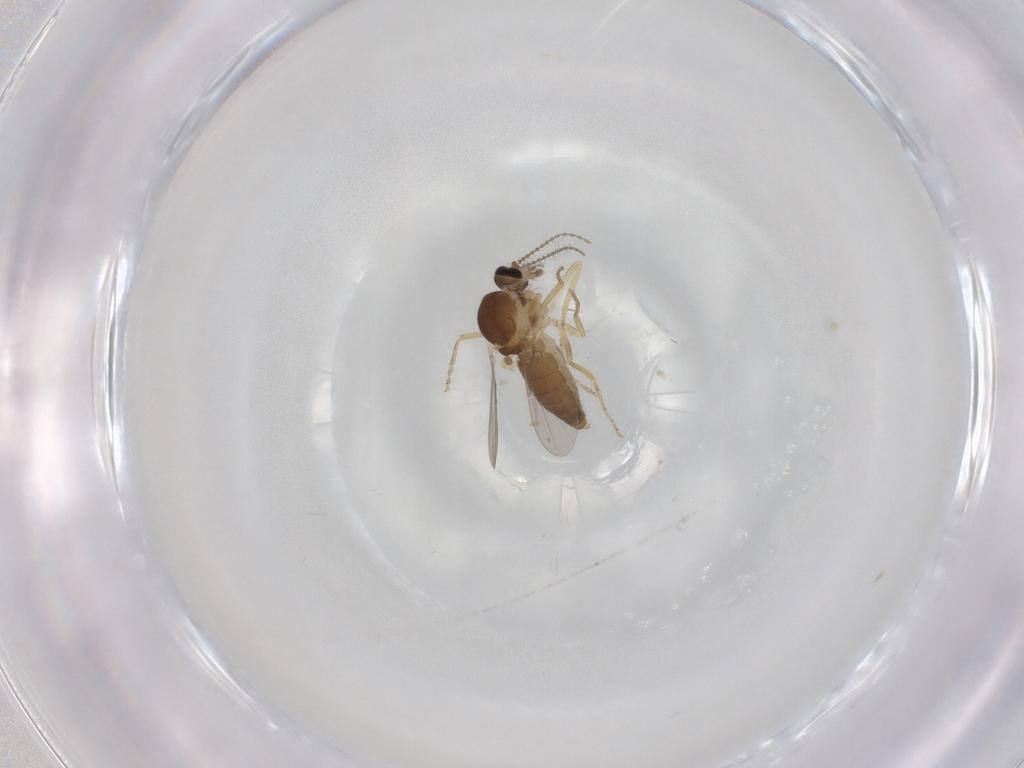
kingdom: Animalia
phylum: Arthropoda
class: Insecta
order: Diptera
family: Ceratopogonidae
